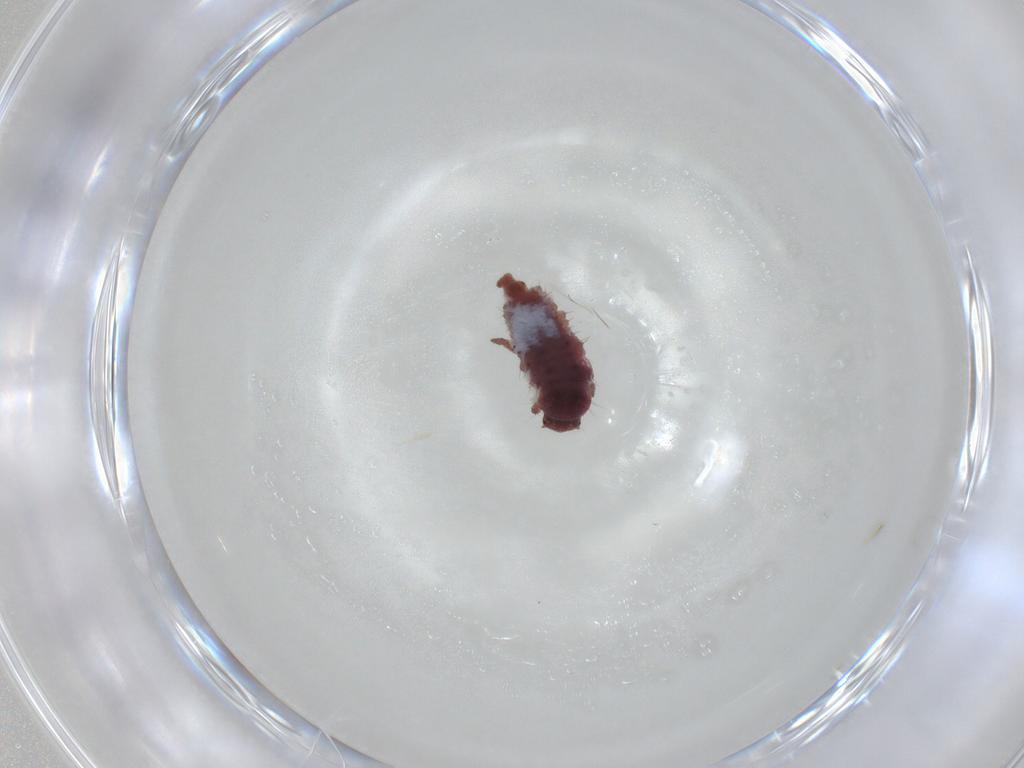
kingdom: Animalia
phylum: Arthropoda
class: Insecta
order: Coleoptera
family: Coccinellidae
